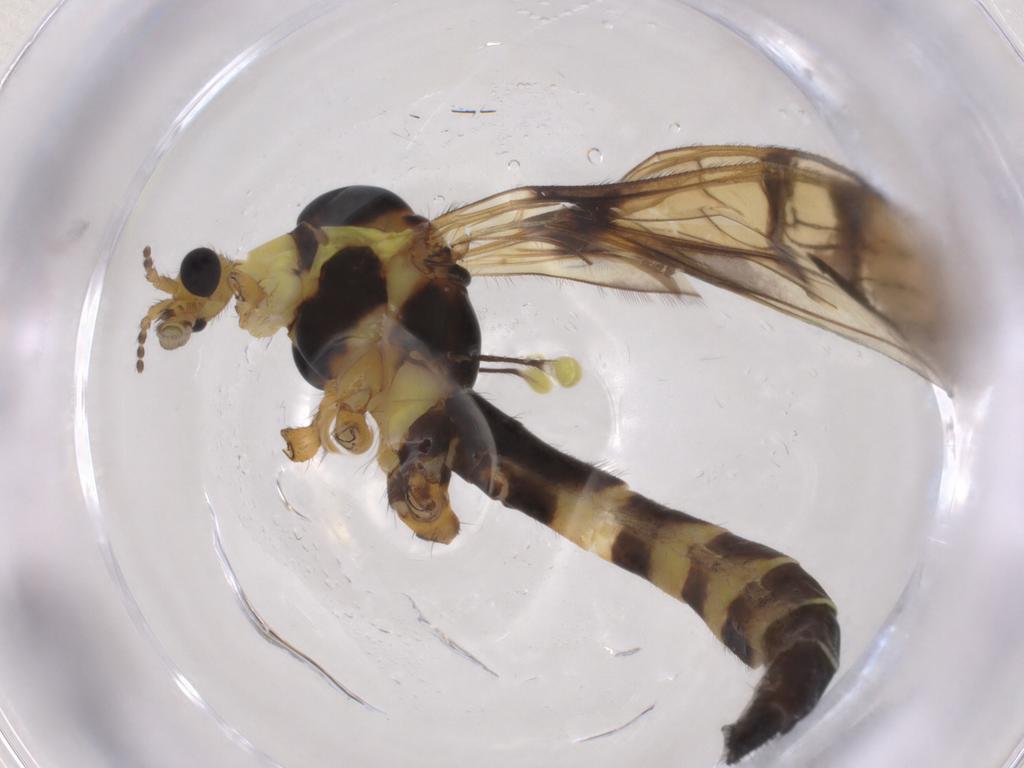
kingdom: Animalia
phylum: Arthropoda
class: Insecta
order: Diptera
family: Limoniidae
